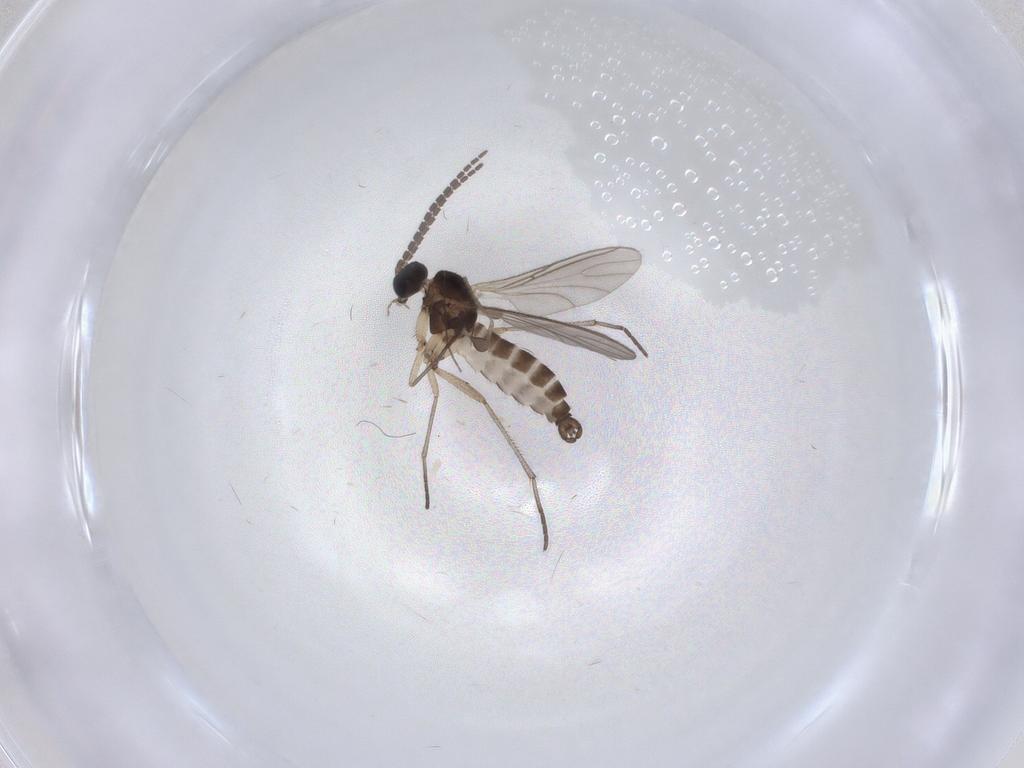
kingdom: Animalia
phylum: Arthropoda
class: Insecta
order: Diptera
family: Sciaridae
